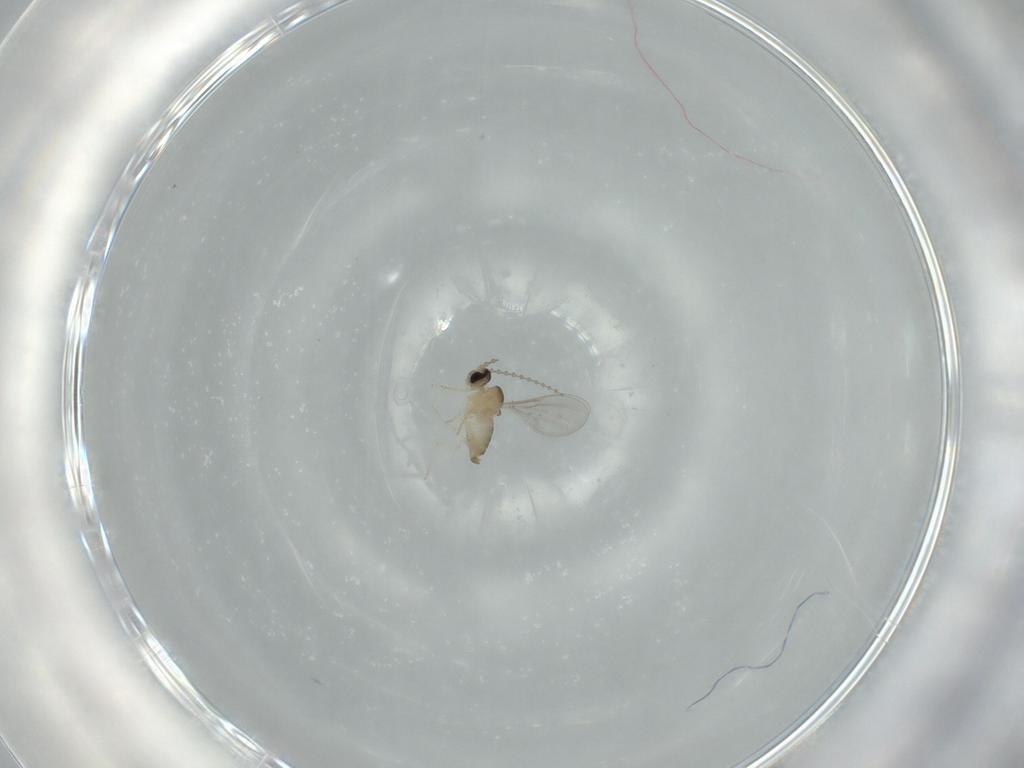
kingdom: Animalia
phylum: Arthropoda
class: Insecta
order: Diptera
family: Cecidomyiidae
